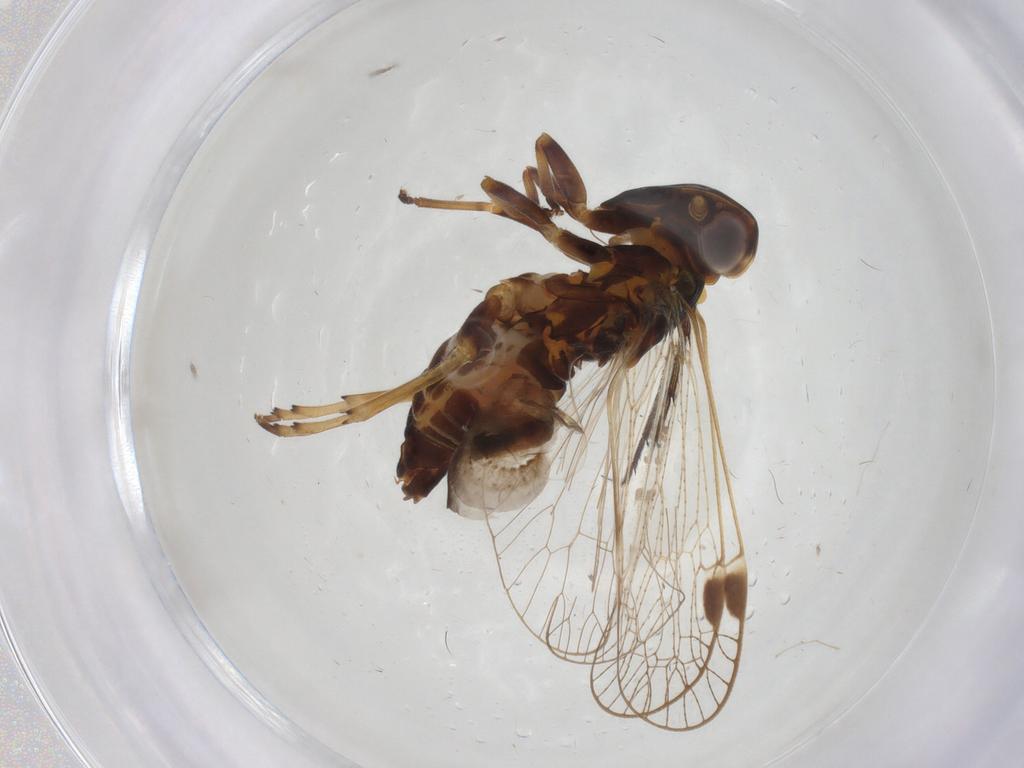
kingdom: Animalia
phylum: Arthropoda
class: Insecta
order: Hemiptera
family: Cixiidae
